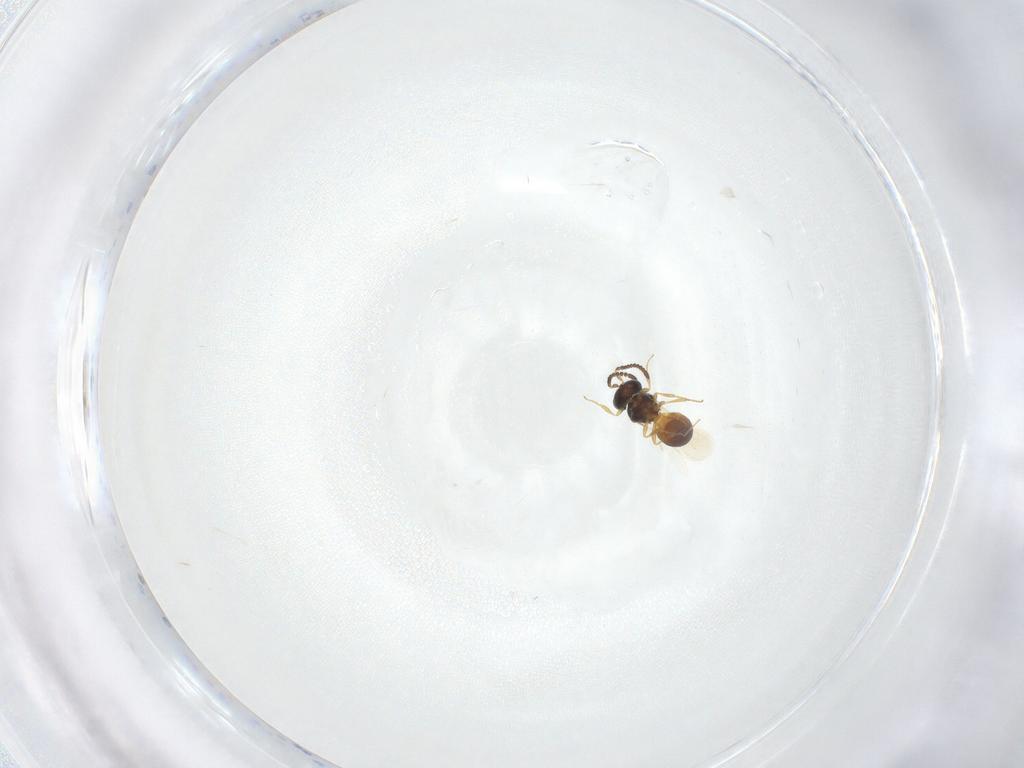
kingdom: Animalia
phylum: Arthropoda
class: Insecta
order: Hymenoptera
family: Scelionidae
